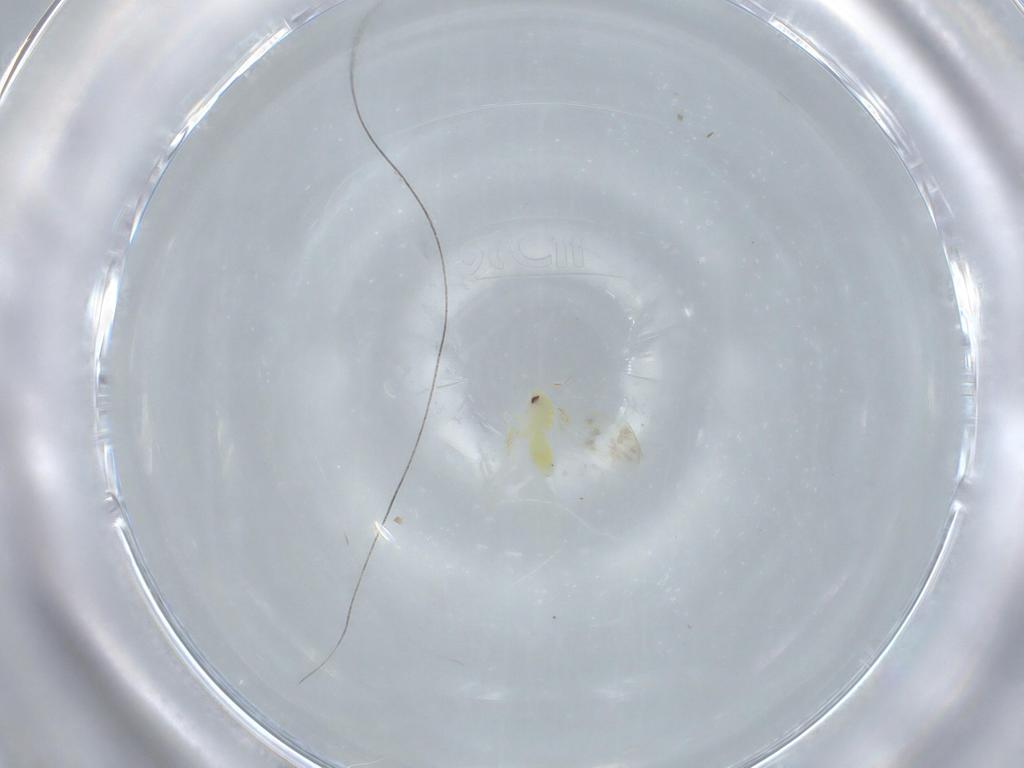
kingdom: Animalia
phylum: Arthropoda
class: Insecta
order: Hemiptera
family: Aleyrodidae
